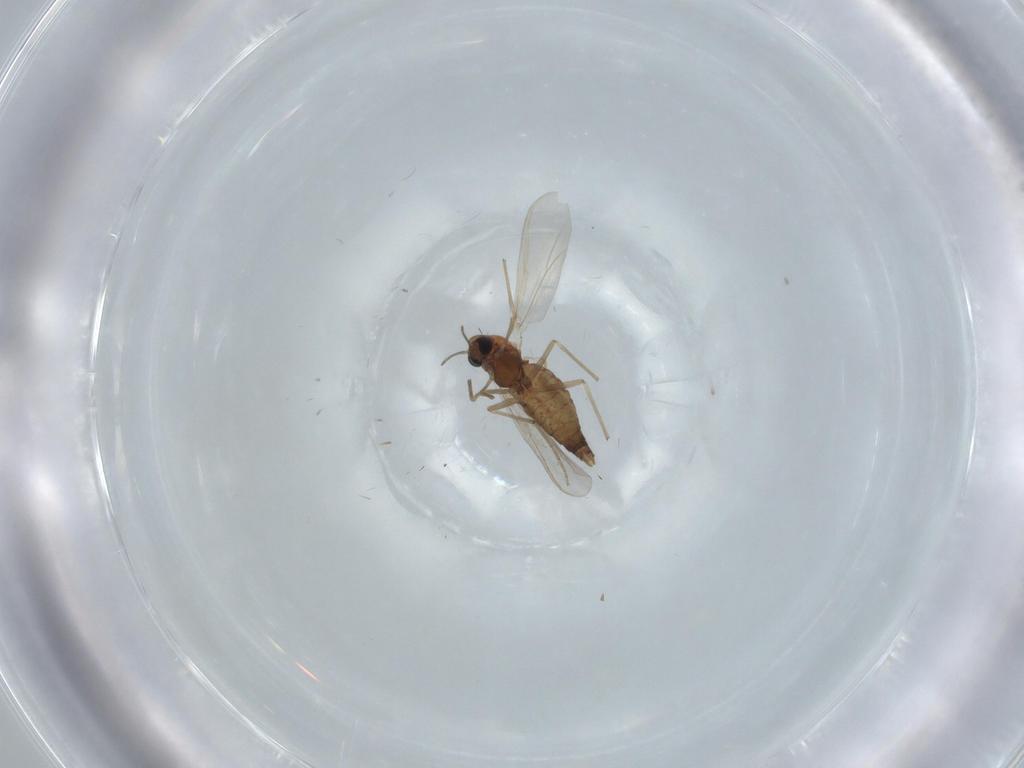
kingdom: Animalia
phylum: Arthropoda
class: Insecta
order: Diptera
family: Chironomidae
